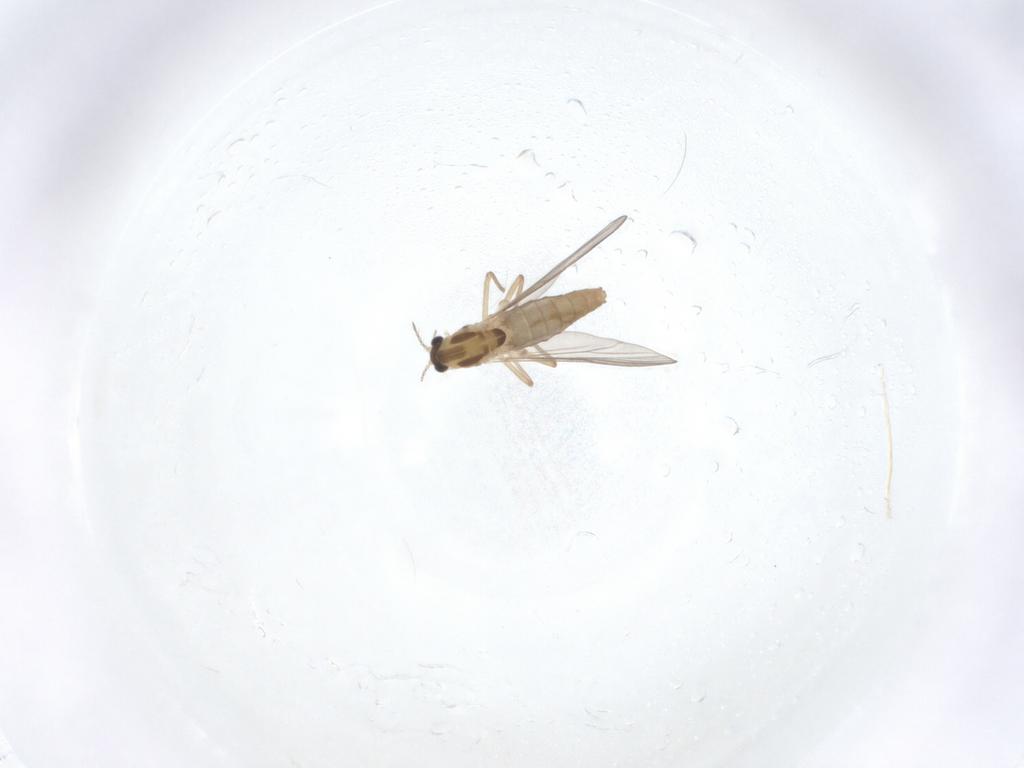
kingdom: Animalia
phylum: Arthropoda
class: Insecta
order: Diptera
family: Chironomidae
